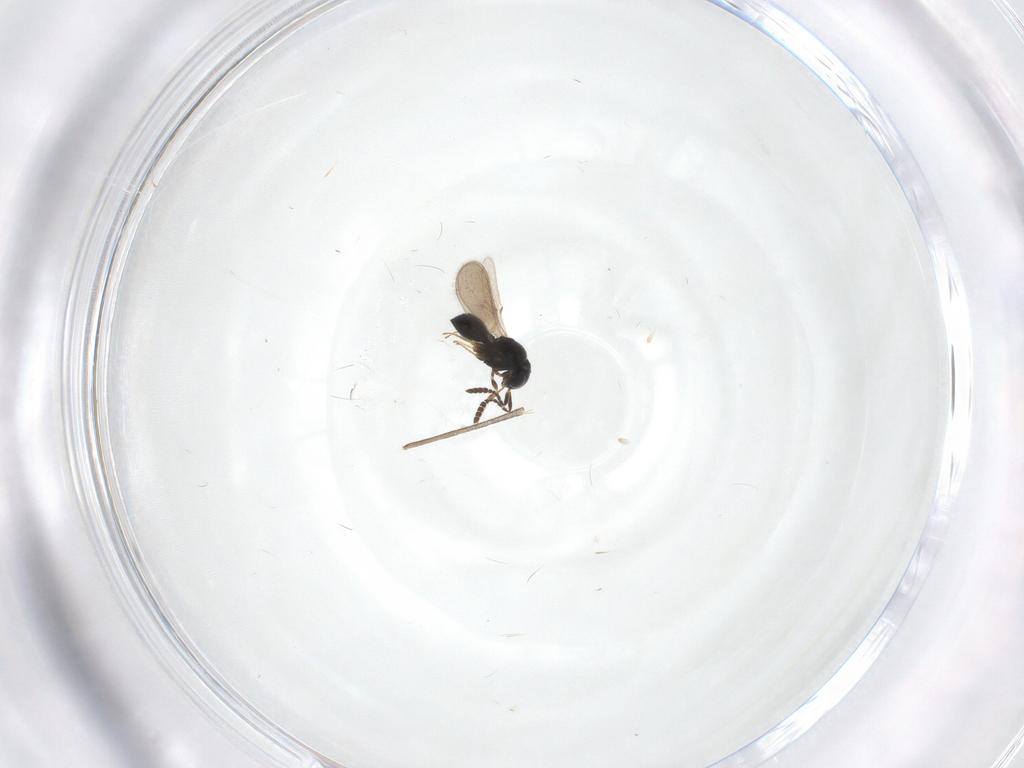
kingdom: Animalia
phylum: Arthropoda
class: Insecta
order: Hymenoptera
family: Scelionidae
